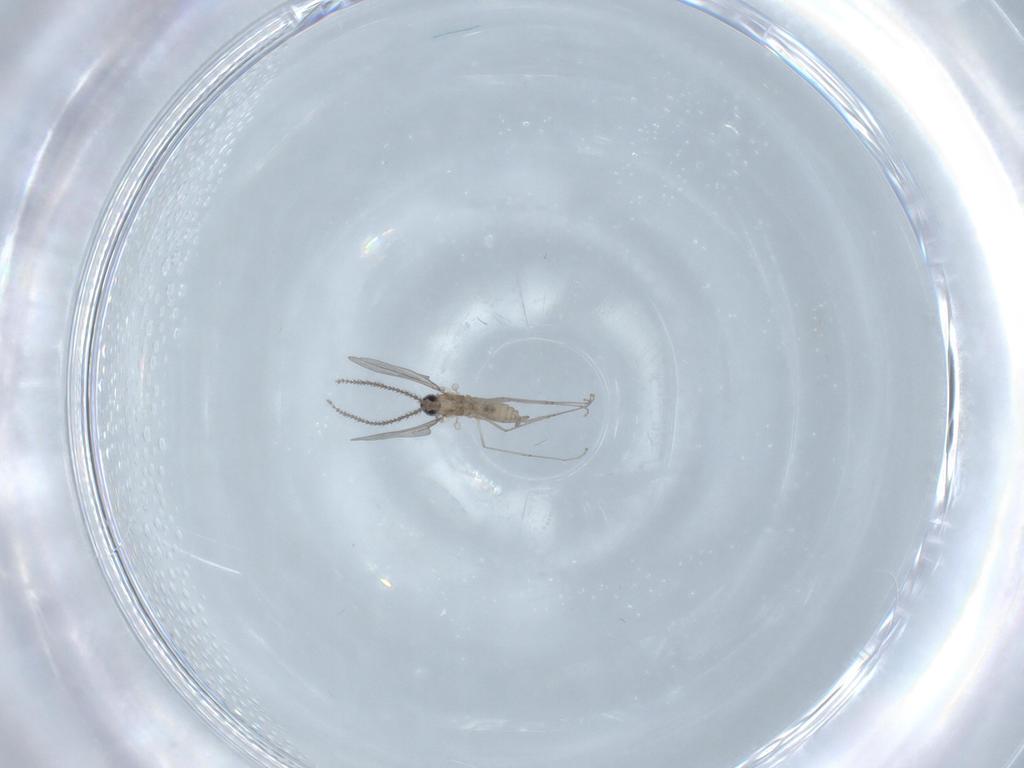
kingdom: Animalia
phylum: Arthropoda
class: Insecta
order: Diptera
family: Cecidomyiidae
